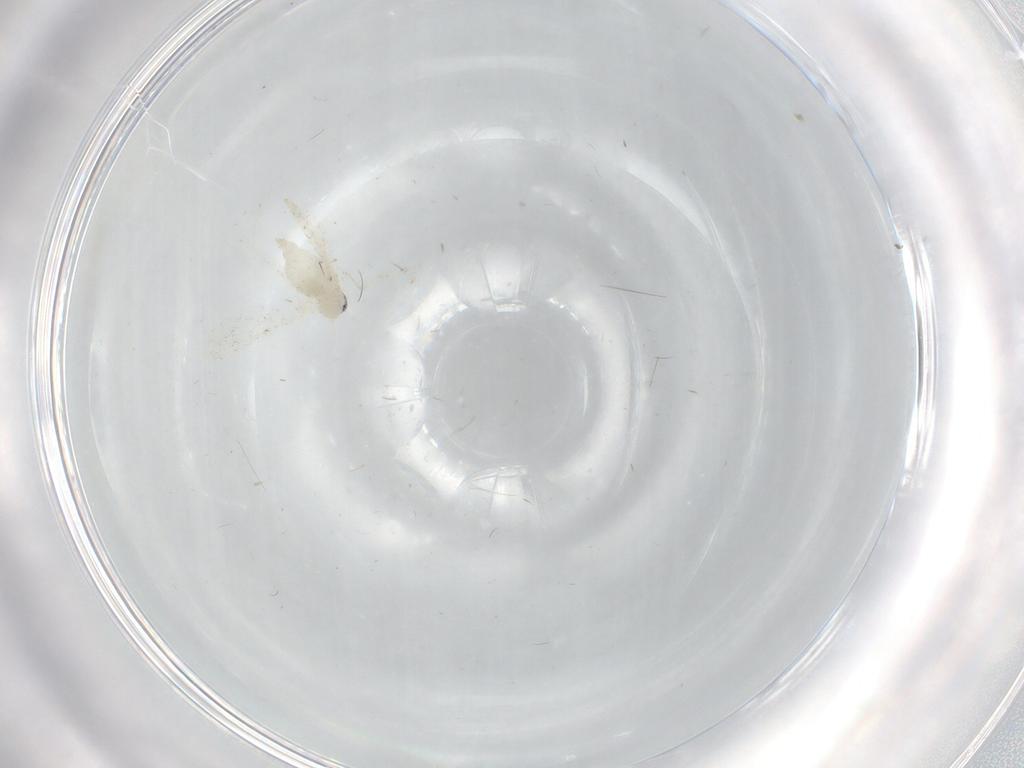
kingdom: Animalia
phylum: Arthropoda
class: Insecta
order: Diptera
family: Cecidomyiidae
